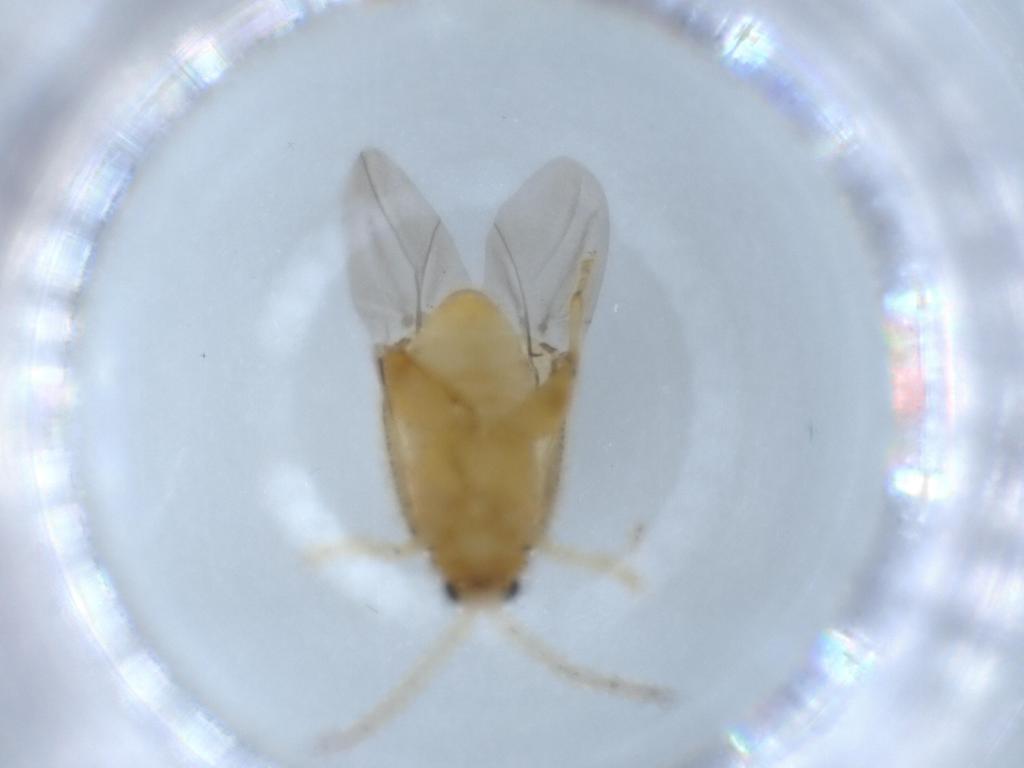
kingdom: Animalia
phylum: Arthropoda
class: Insecta
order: Coleoptera
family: Chrysomelidae
